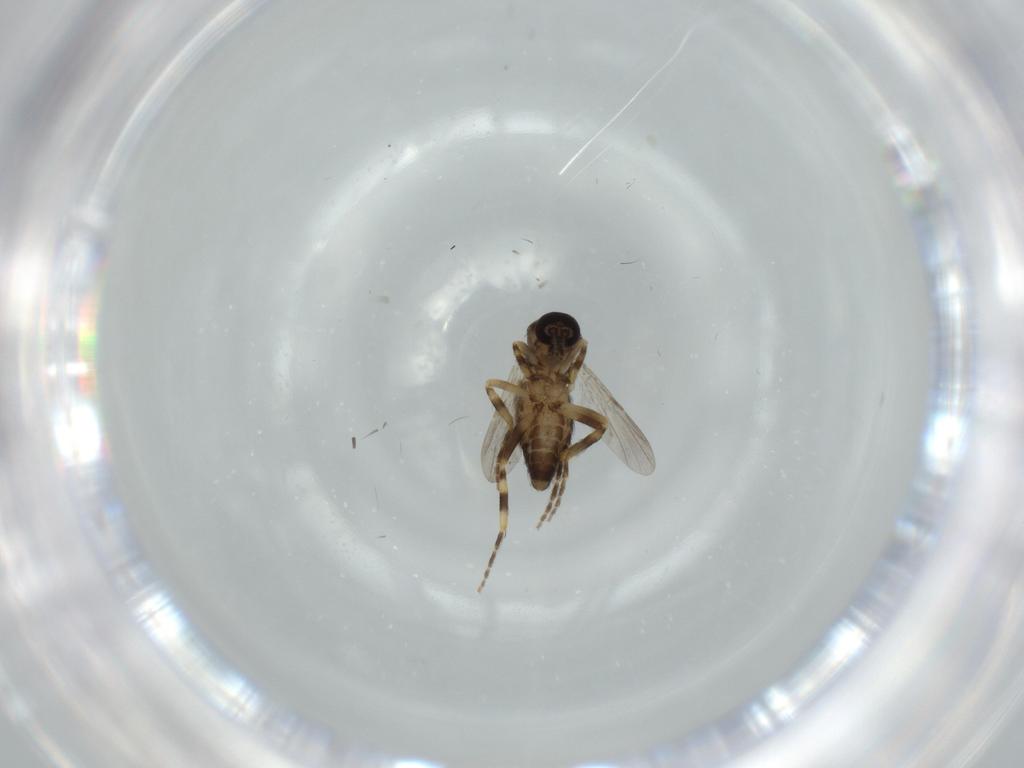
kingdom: Animalia
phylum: Arthropoda
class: Insecta
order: Diptera
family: Ceratopogonidae
